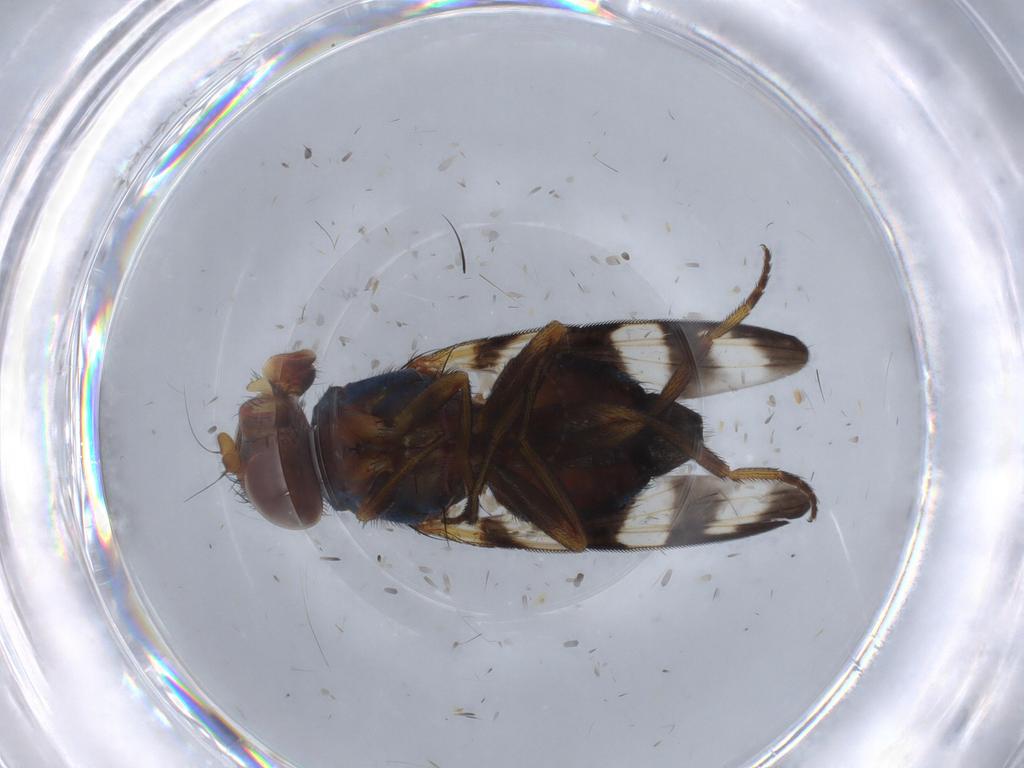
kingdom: Animalia
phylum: Arthropoda
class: Insecta
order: Diptera
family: Ulidiidae
